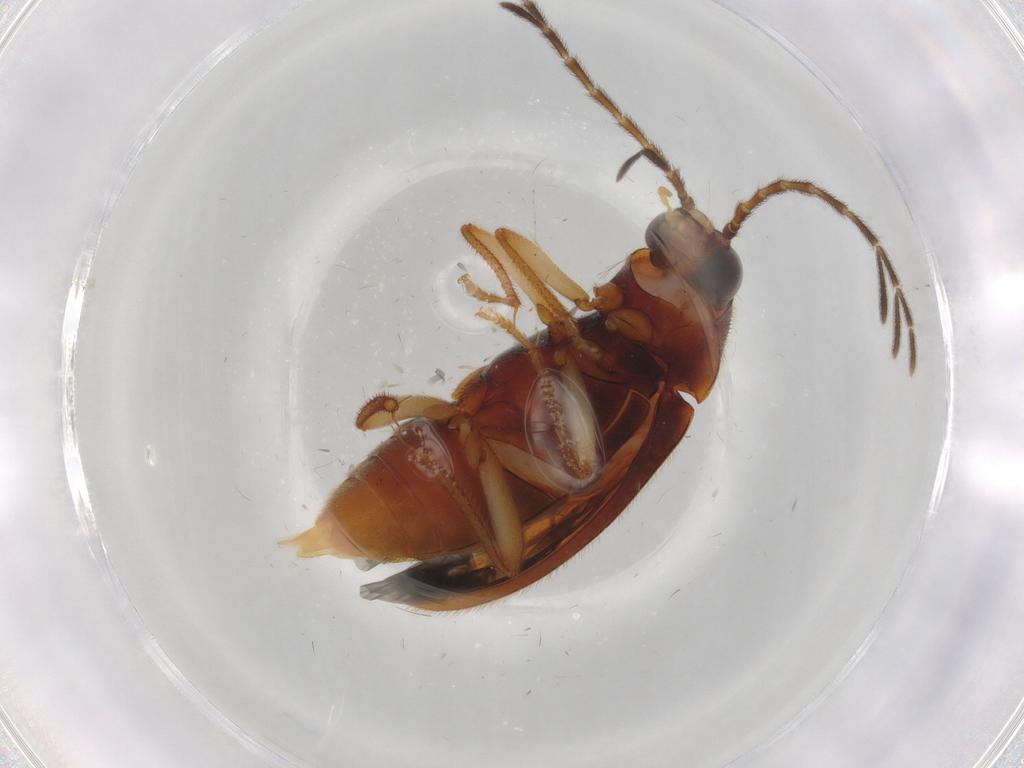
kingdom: Animalia
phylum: Arthropoda
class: Insecta
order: Coleoptera
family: Ptilodactylidae
